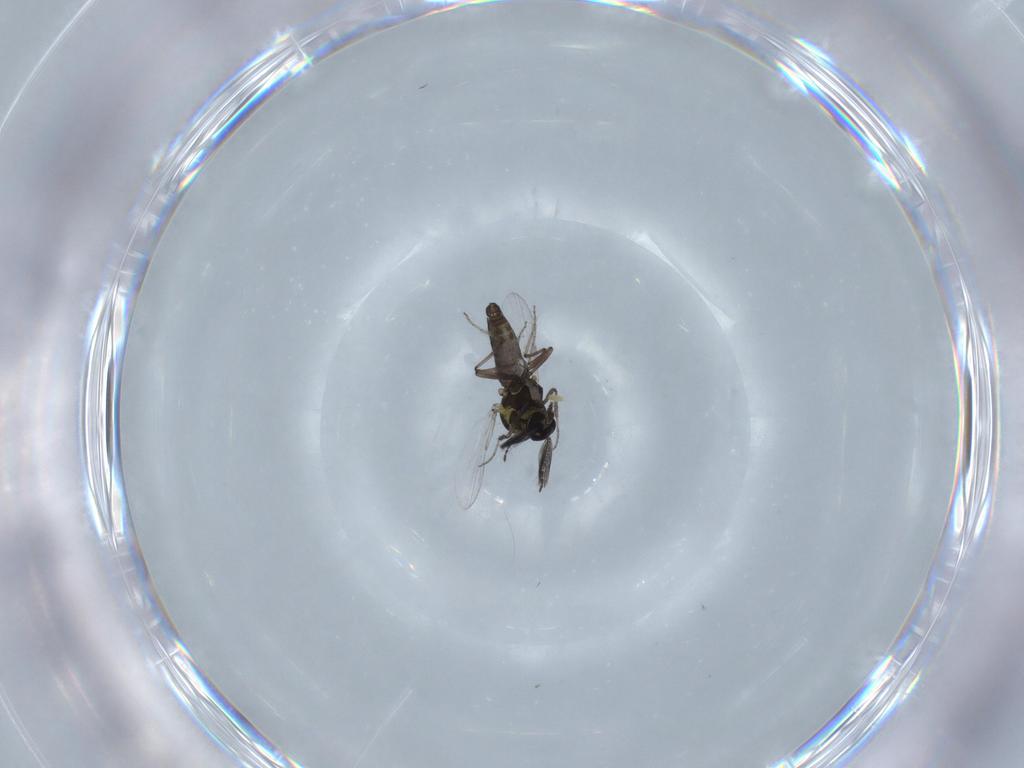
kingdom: Animalia
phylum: Arthropoda
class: Insecta
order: Diptera
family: Ceratopogonidae
